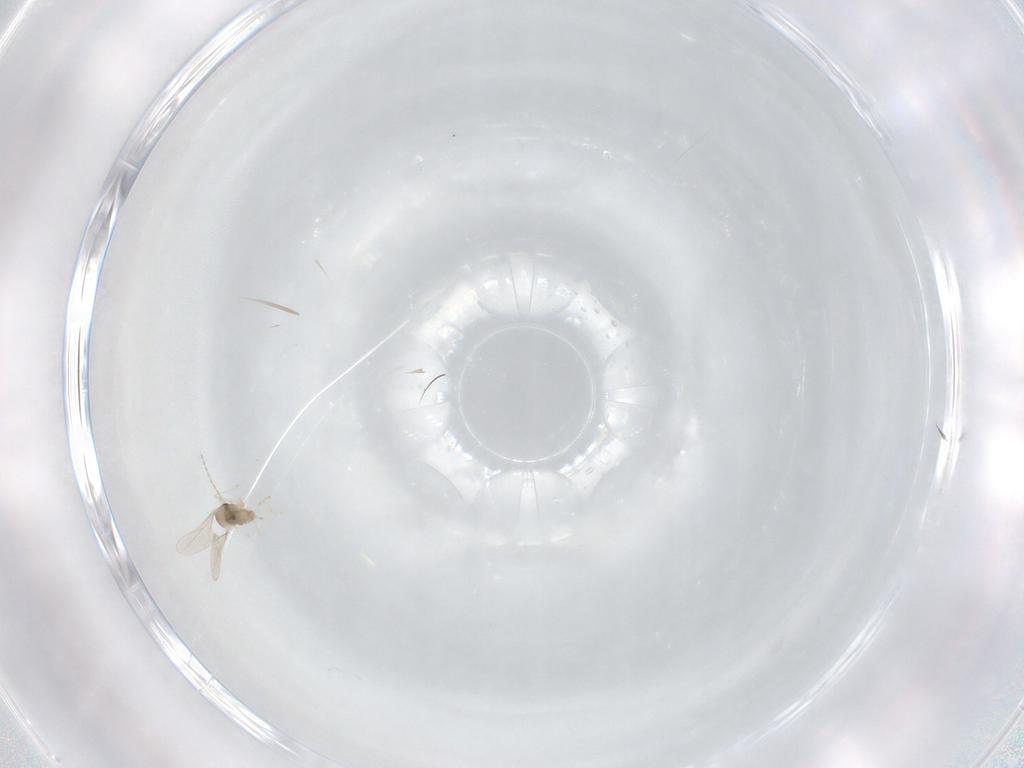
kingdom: Animalia
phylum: Arthropoda
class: Insecta
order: Diptera
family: Cecidomyiidae
